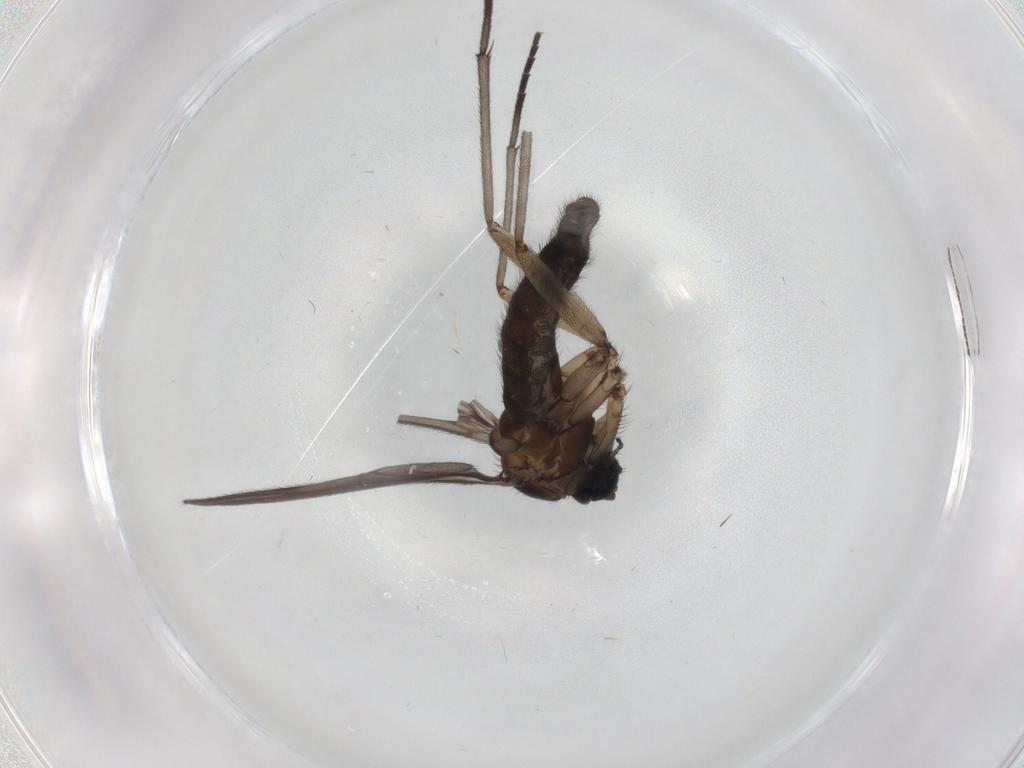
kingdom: Animalia
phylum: Arthropoda
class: Insecta
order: Diptera
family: Sciaridae
